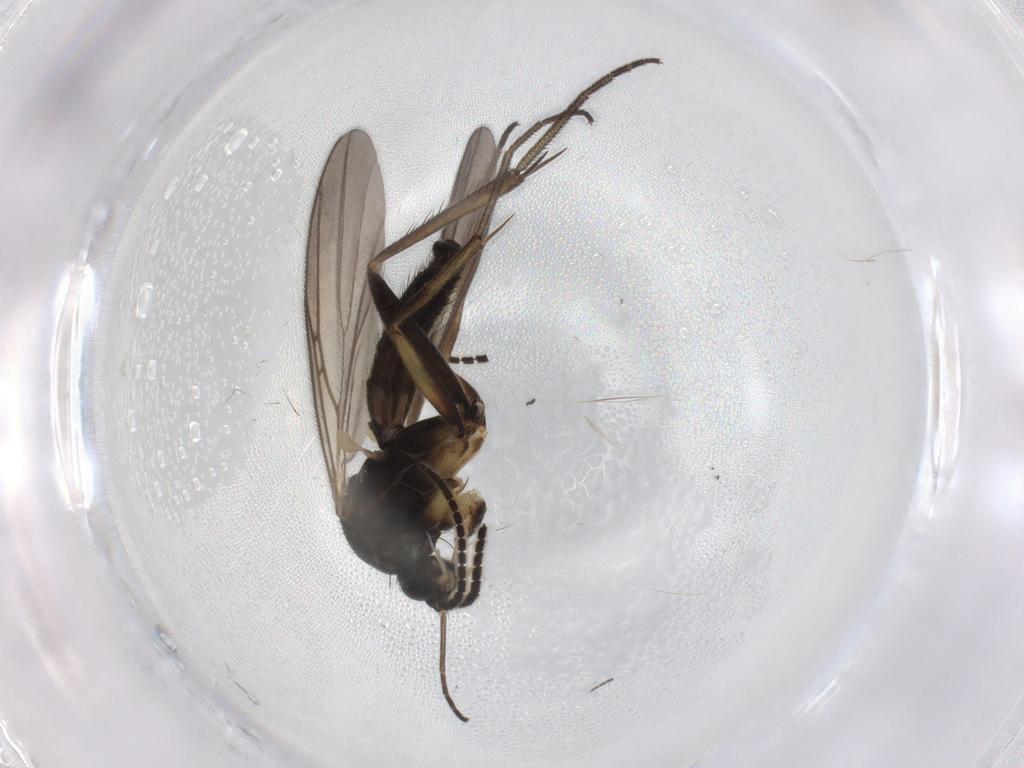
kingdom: Animalia
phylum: Arthropoda
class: Insecta
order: Diptera
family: Mycetophilidae
